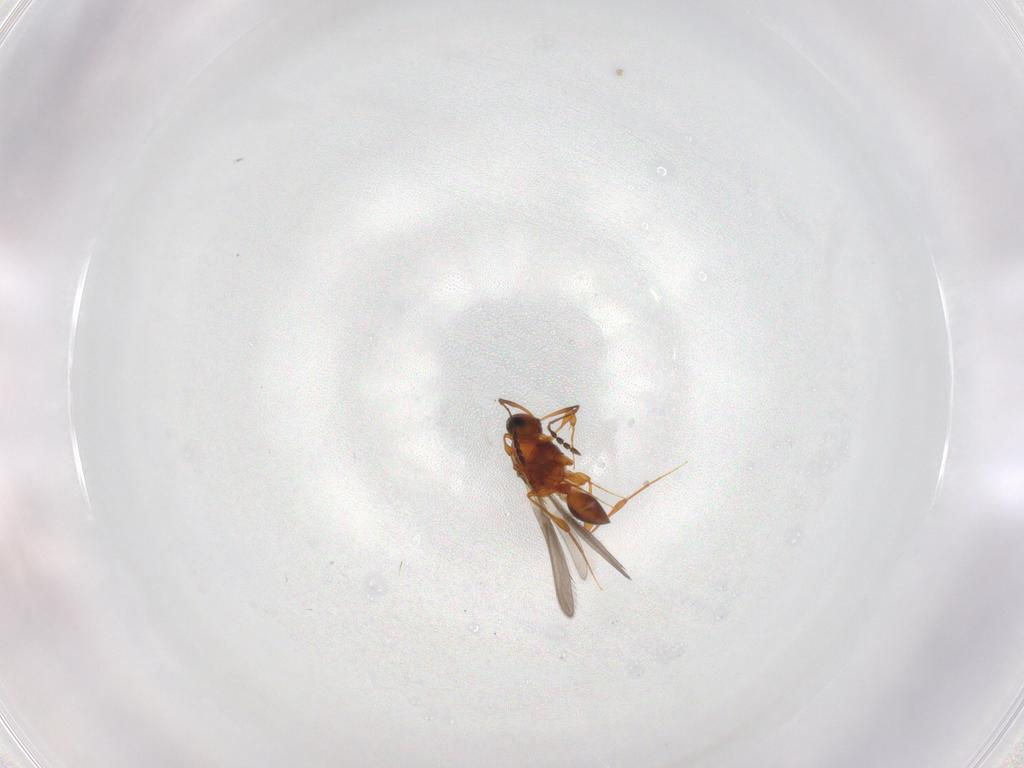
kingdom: Animalia
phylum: Arthropoda
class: Insecta
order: Hymenoptera
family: Platygastridae
